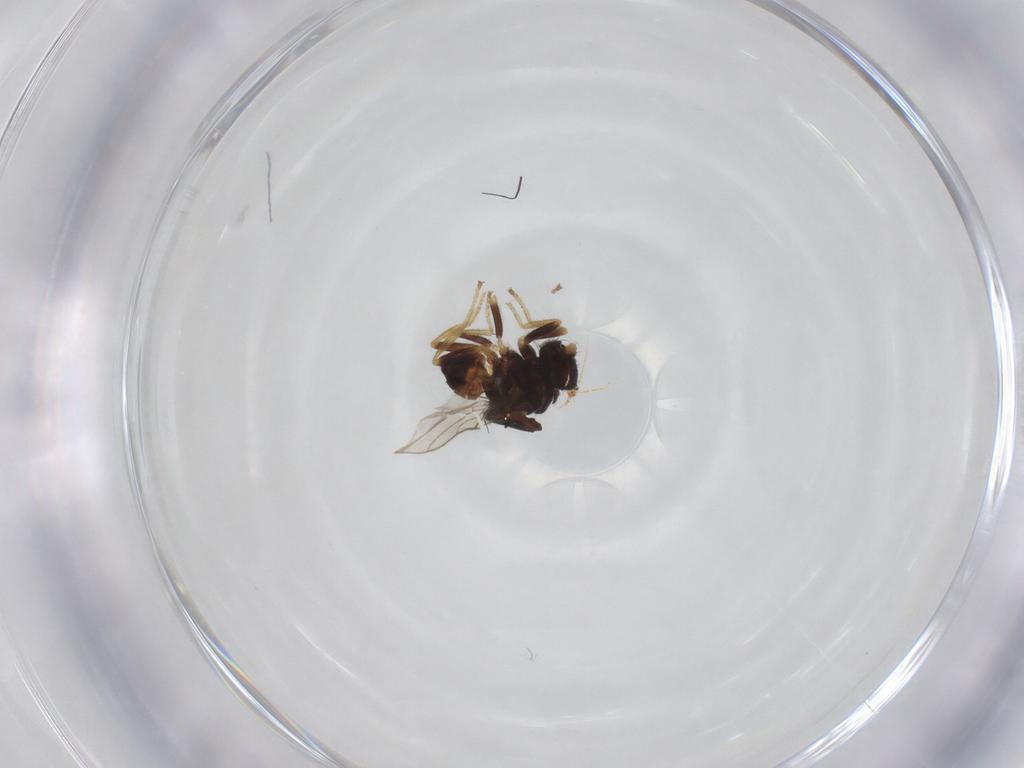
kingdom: Animalia
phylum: Arthropoda
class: Insecta
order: Diptera
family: Chloropidae
